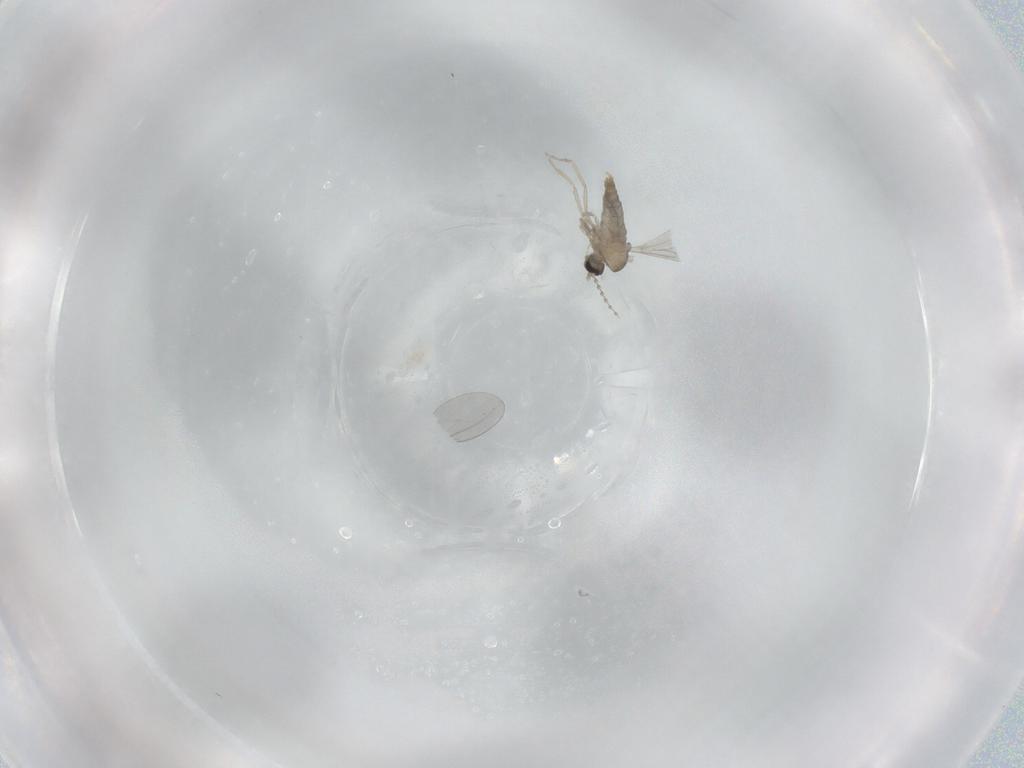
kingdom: Animalia
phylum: Arthropoda
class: Insecta
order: Diptera
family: Cecidomyiidae
